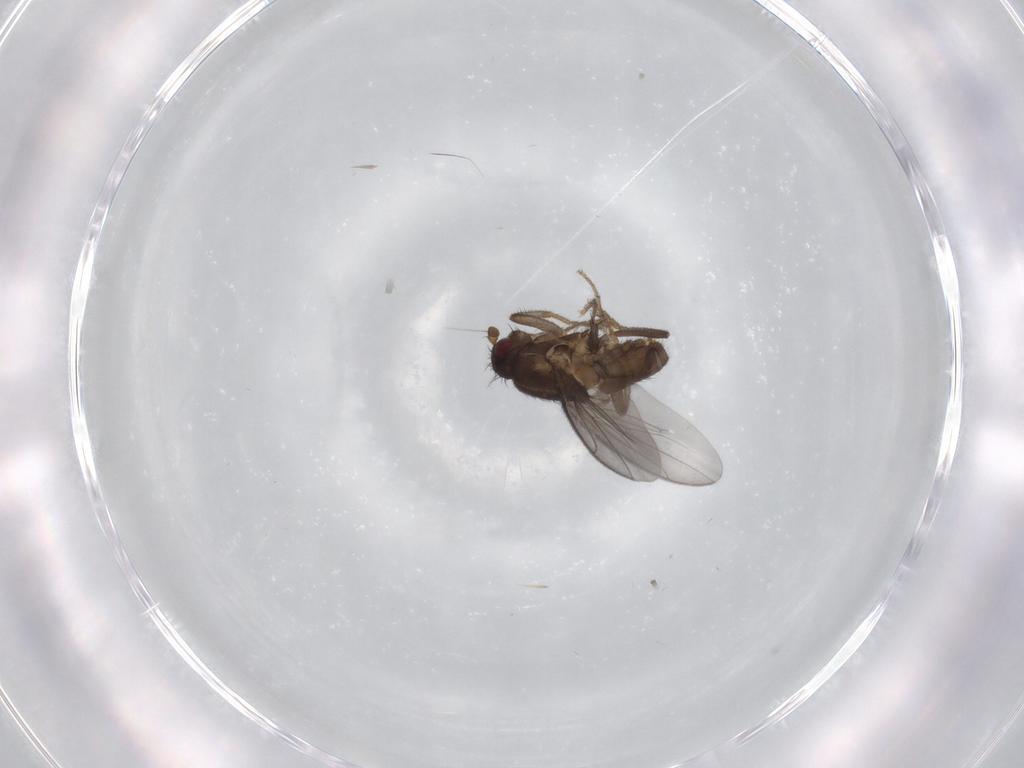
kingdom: Animalia
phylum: Arthropoda
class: Insecta
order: Diptera
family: Sphaeroceridae
